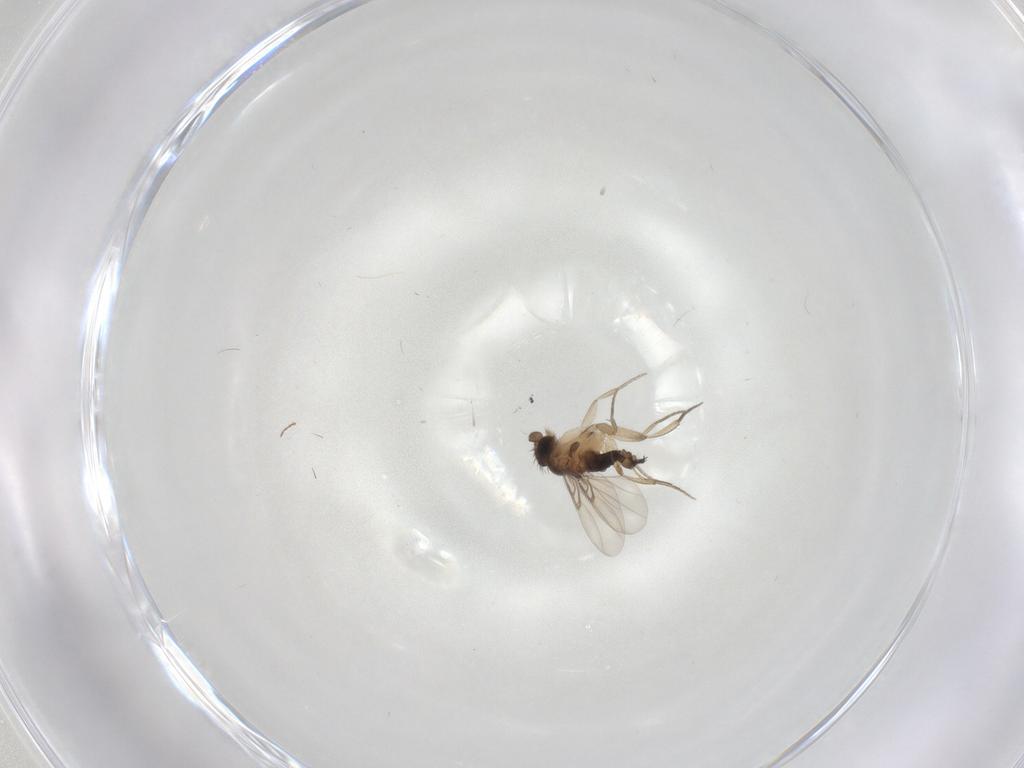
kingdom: Animalia
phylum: Arthropoda
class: Insecta
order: Diptera
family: Phoridae
